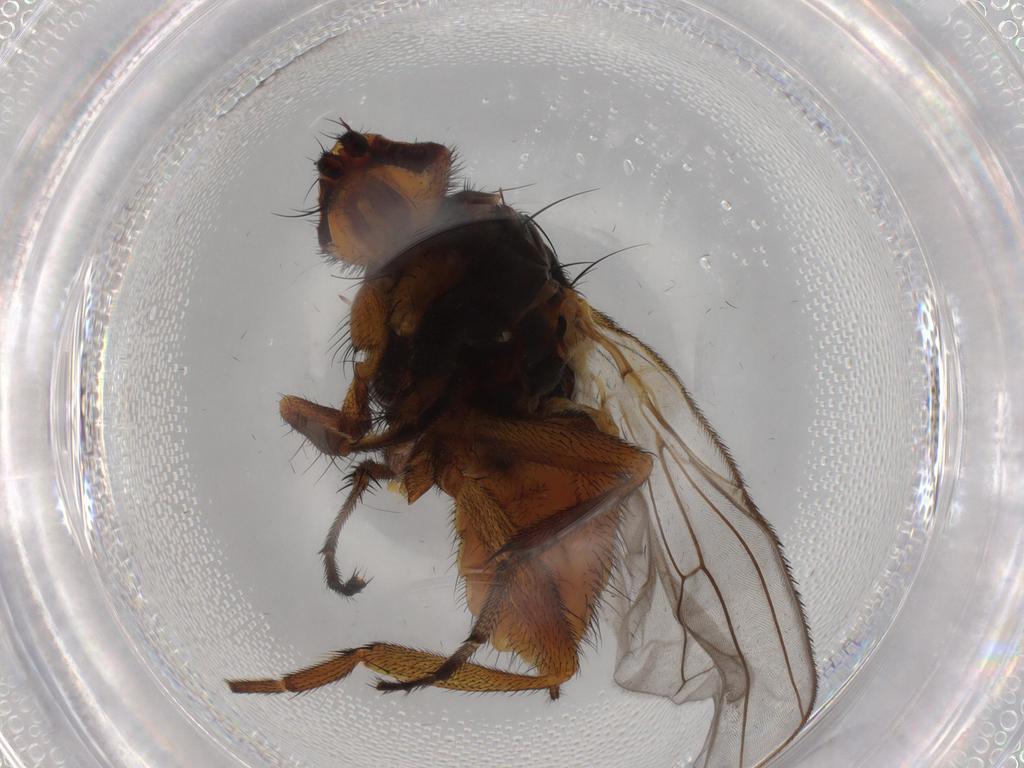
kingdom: Animalia
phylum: Arthropoda
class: Insecta
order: Diptera
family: Heleomyzidae
